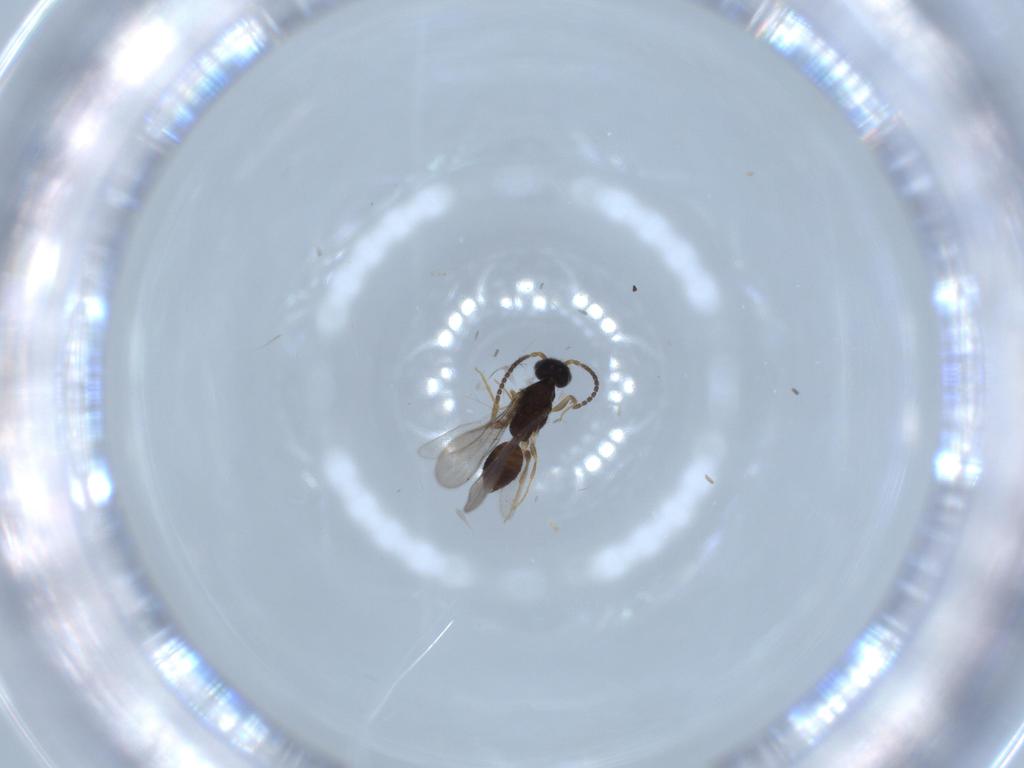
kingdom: Animalia
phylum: Arthropoda
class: Insecta
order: Hymenoptera
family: Bethylidae
